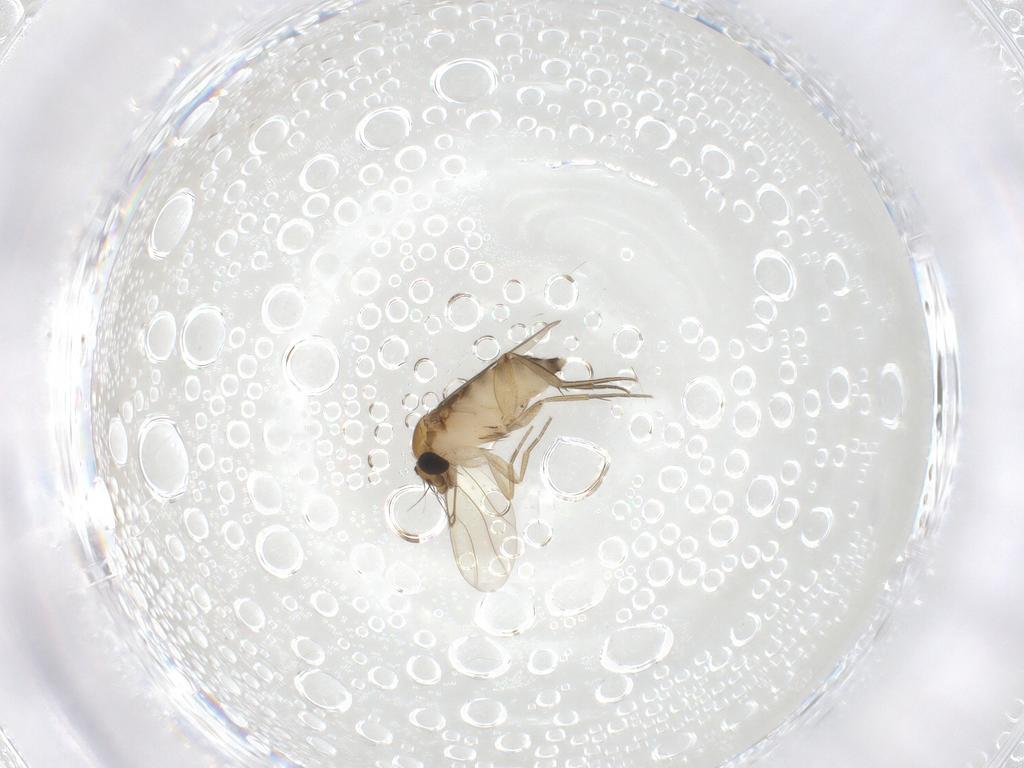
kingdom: Animalia
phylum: Arthropoda
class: Insecta
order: Diptera
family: Phoridae
